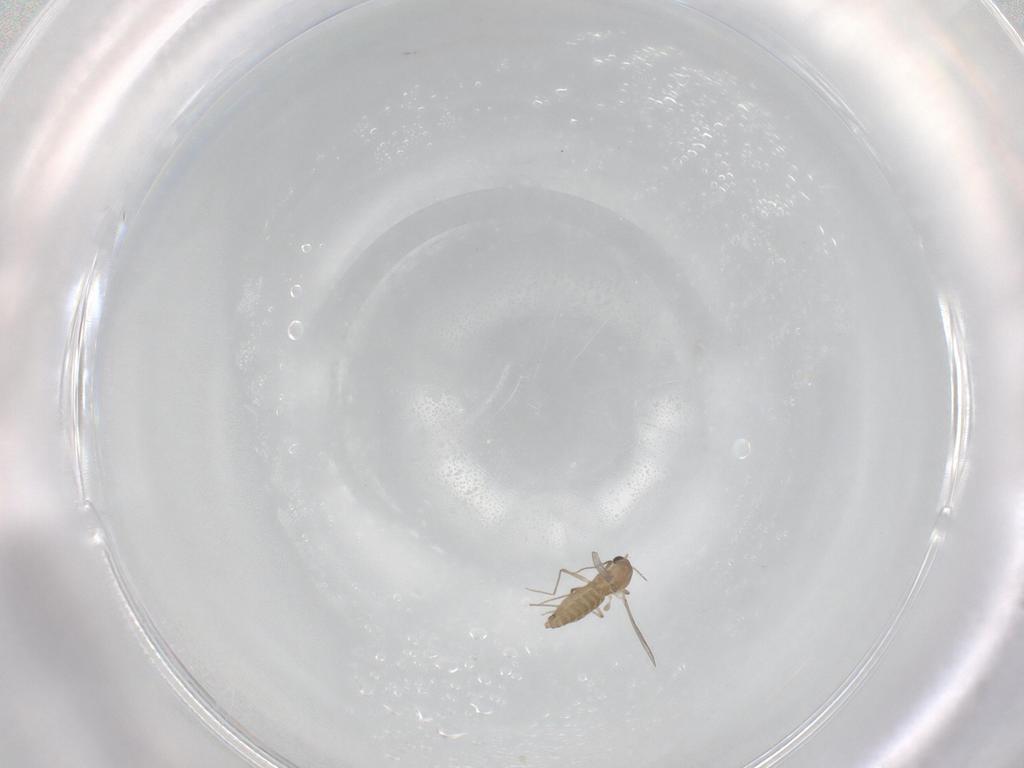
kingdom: Animalia
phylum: Arthropoda
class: Insecta
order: Diptera
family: Chironomidae
